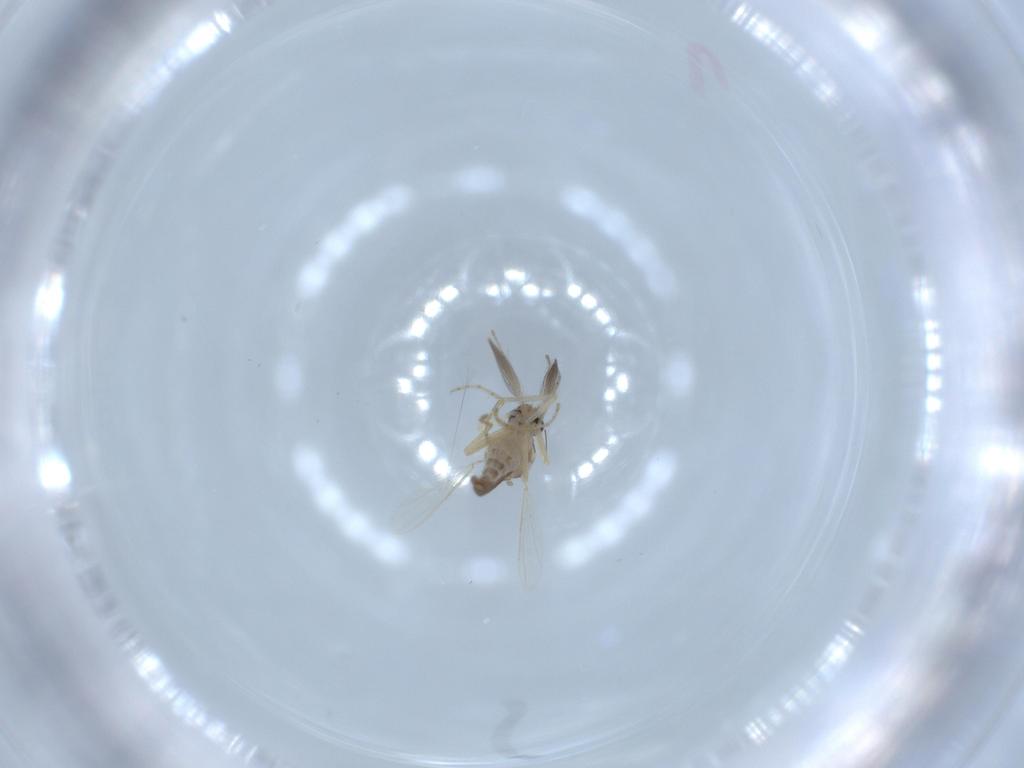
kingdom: Animalia
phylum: Arthropoda
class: Insecta
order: Diptera
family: Ceratopogonidae
